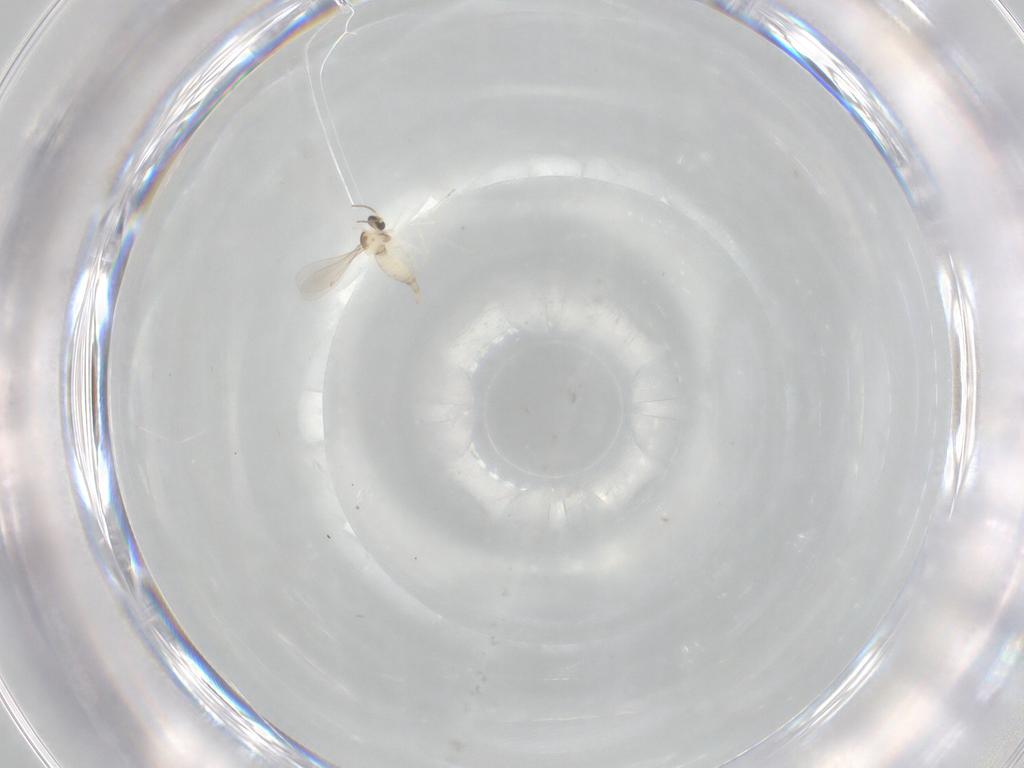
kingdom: Animalia
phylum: Arthropoda
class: Insecta
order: Diptera
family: Cecidomyiidae
